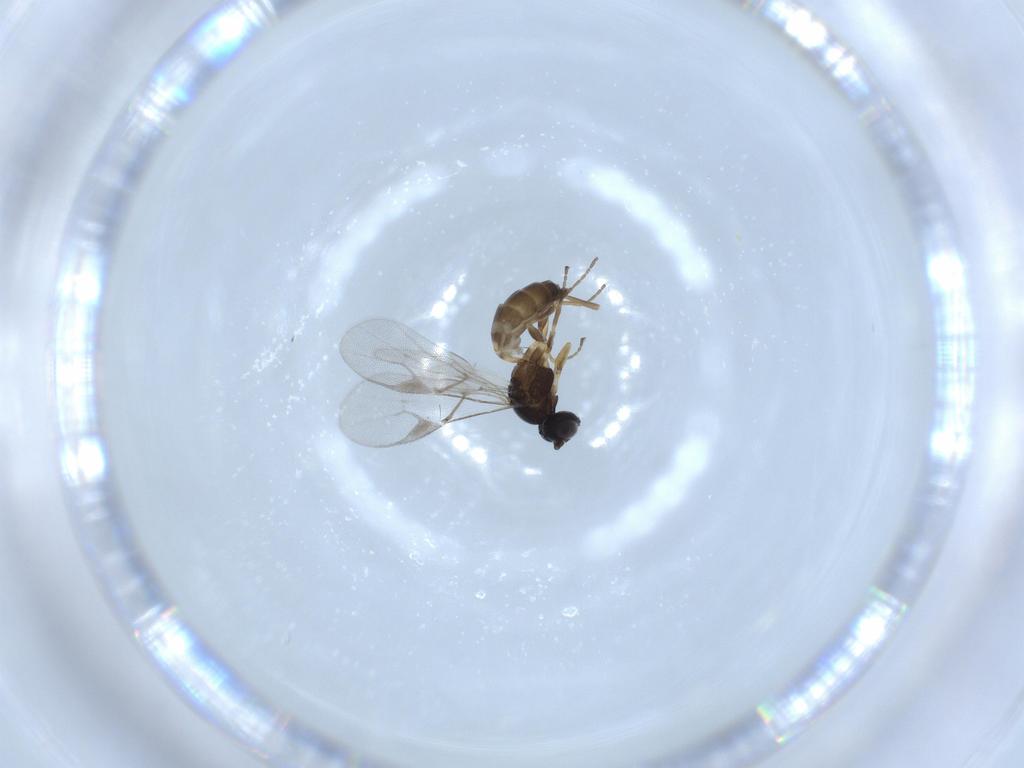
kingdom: Animalia
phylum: Arthropoda
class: Insecta
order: Hymenoptera
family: Braconidae
